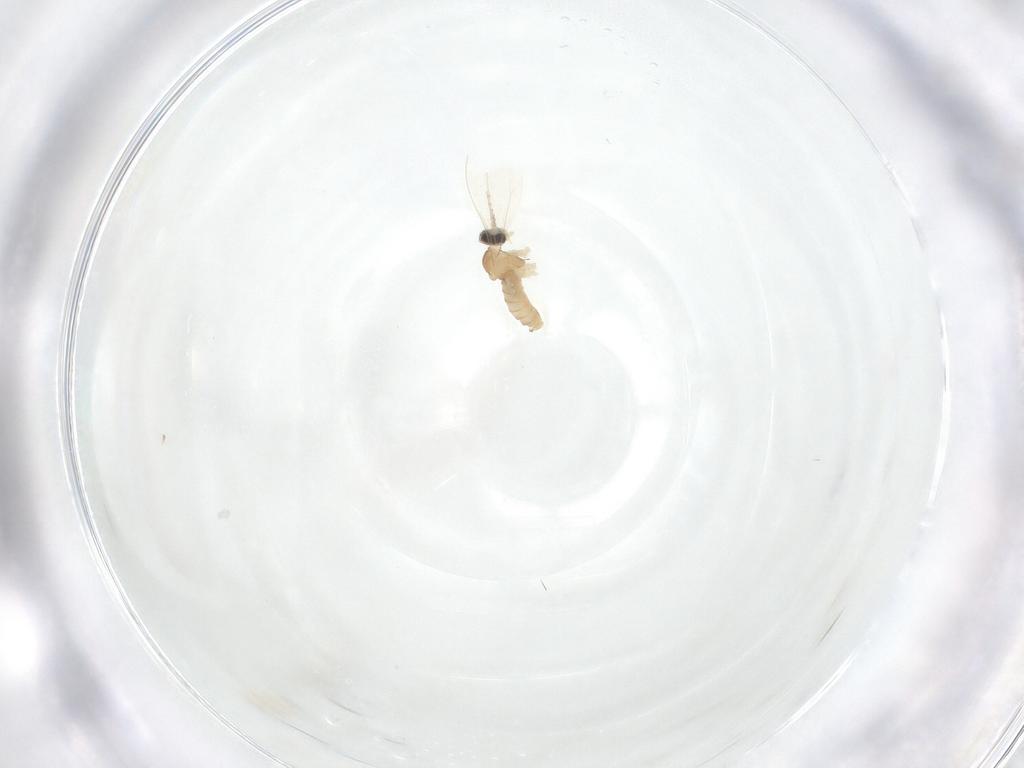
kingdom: Animalia
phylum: Arthropoda
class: Insecta
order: Diptera
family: Cecidomyiidae
